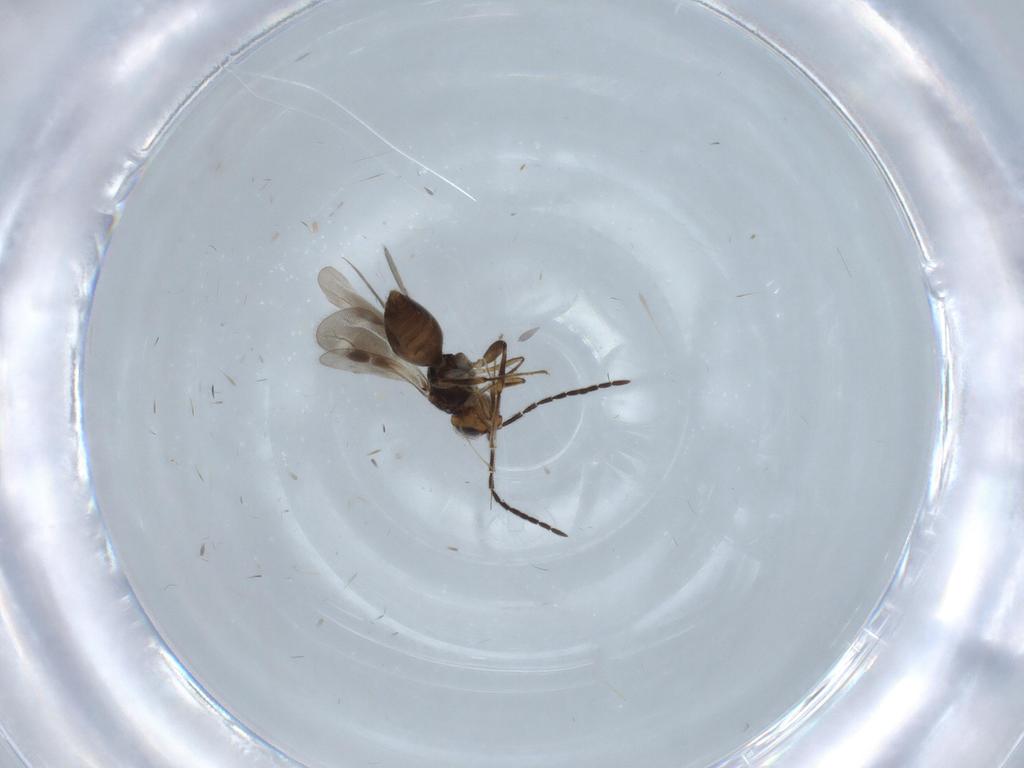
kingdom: Animalia
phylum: Arthropoda
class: Insecta
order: Hymenoptera
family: Megaspilidae
